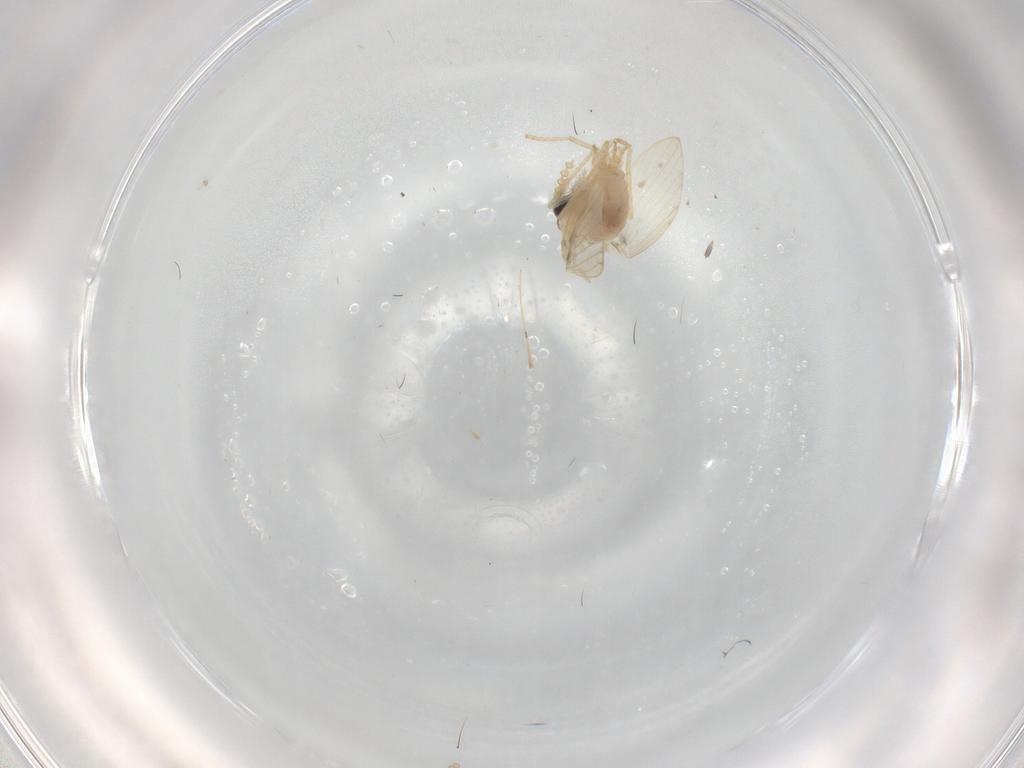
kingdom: Animalia
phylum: Arthropoda
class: Insecta
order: Diptera
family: Psychodidae
